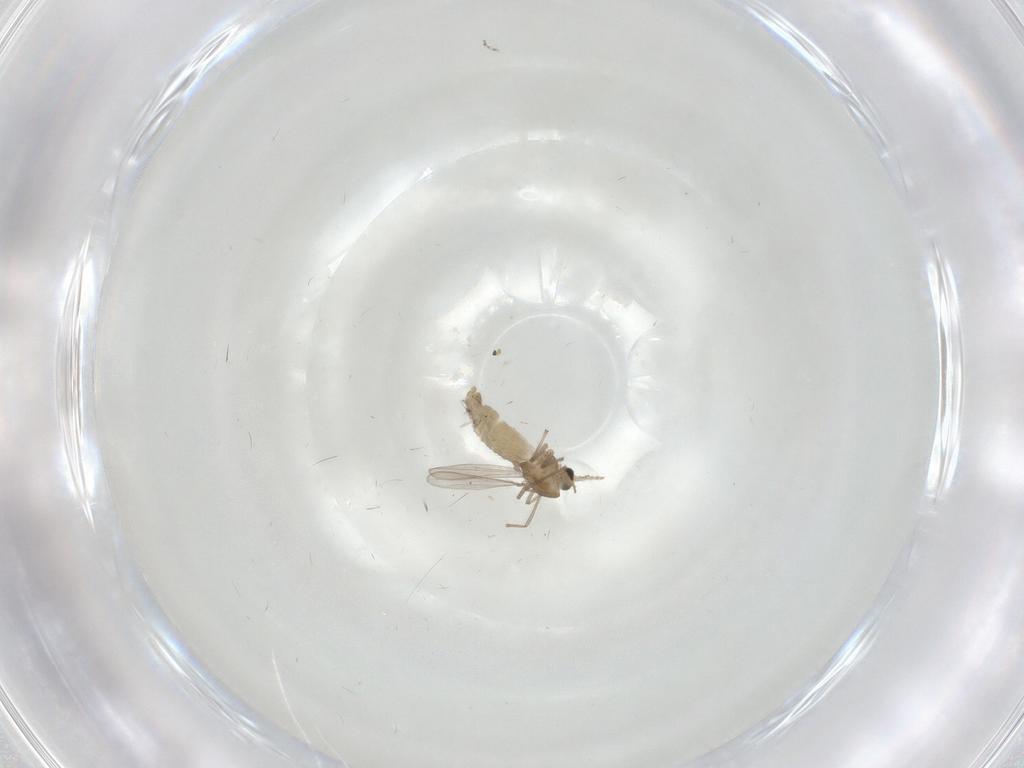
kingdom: Animalia
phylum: Arthropoda
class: Insecta
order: Diptera
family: Chironomidae
